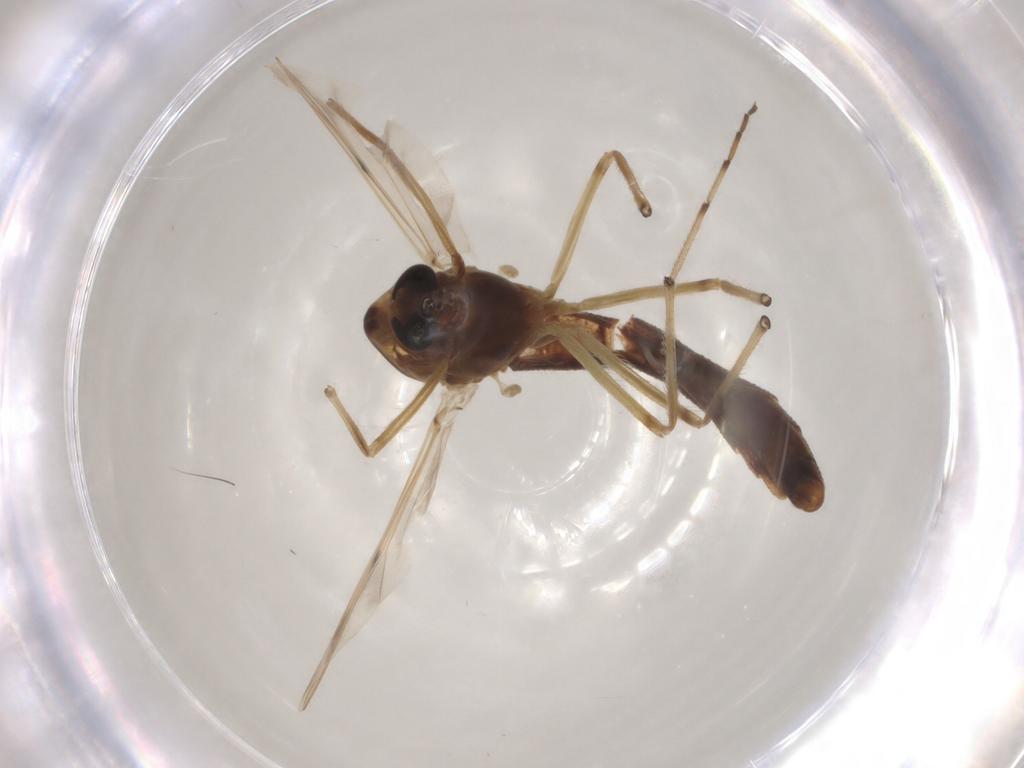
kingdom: Animalia
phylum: Arthropoda
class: Insecta
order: Diptera
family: Chironomidae
